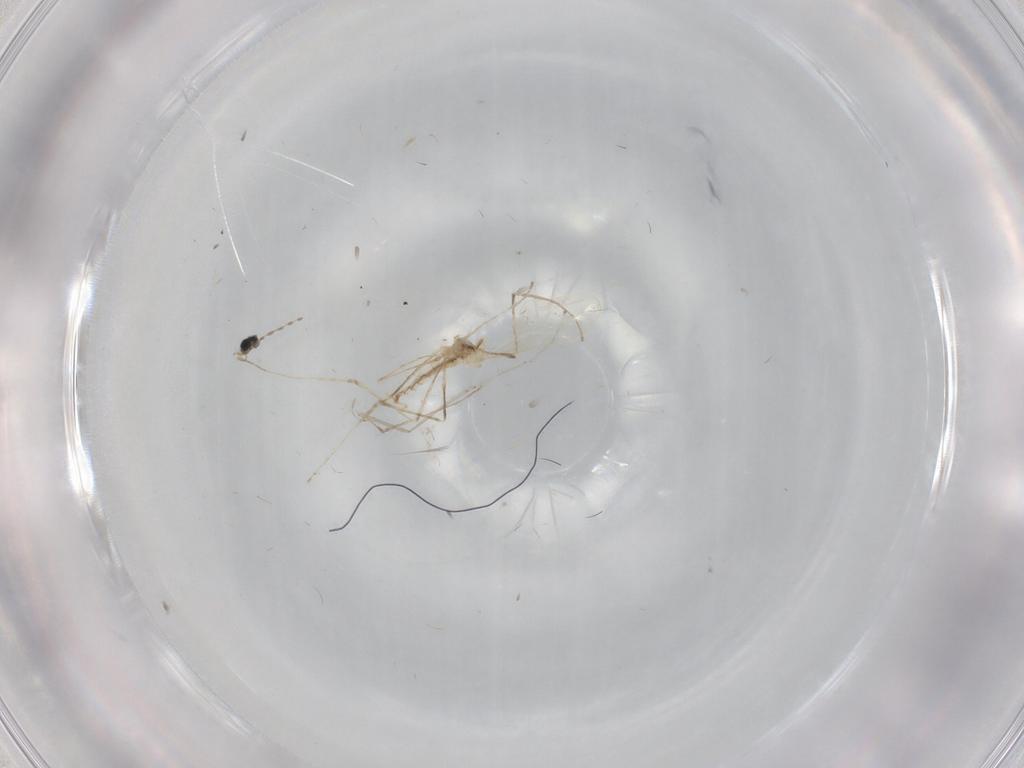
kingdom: Animalia
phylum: Arthropoda
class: Insecta
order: Diptera
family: Cecidomyiidae
